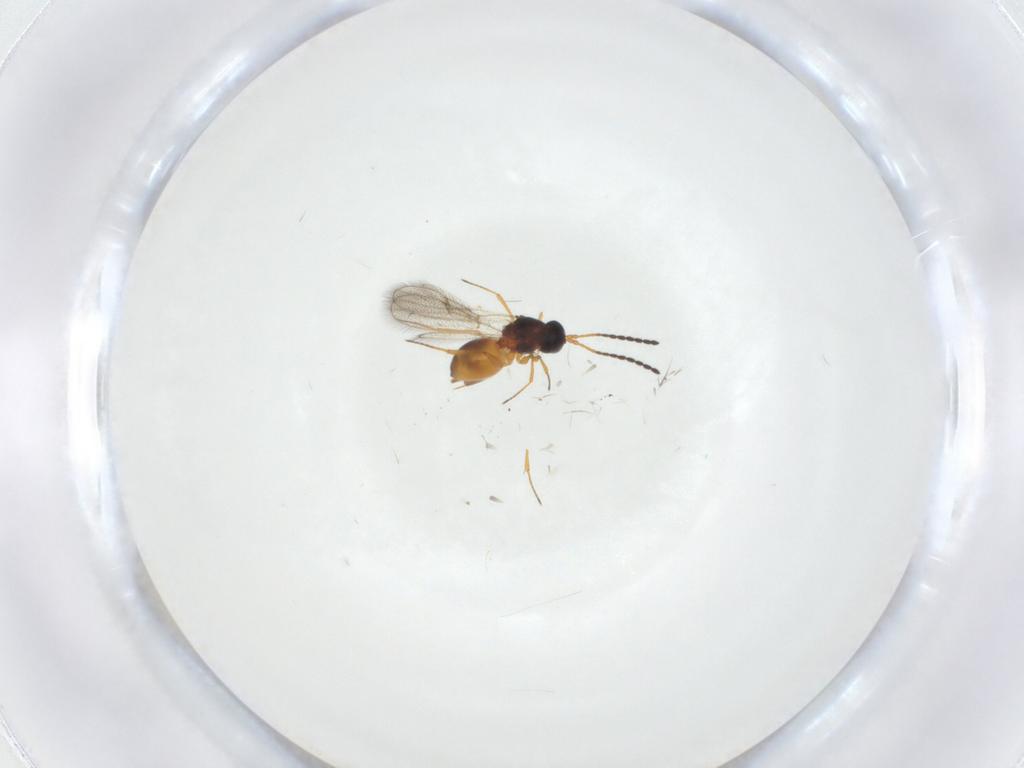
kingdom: Animalia
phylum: Arthropoda
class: Insecta
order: Hymenoptera
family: Figitidae
